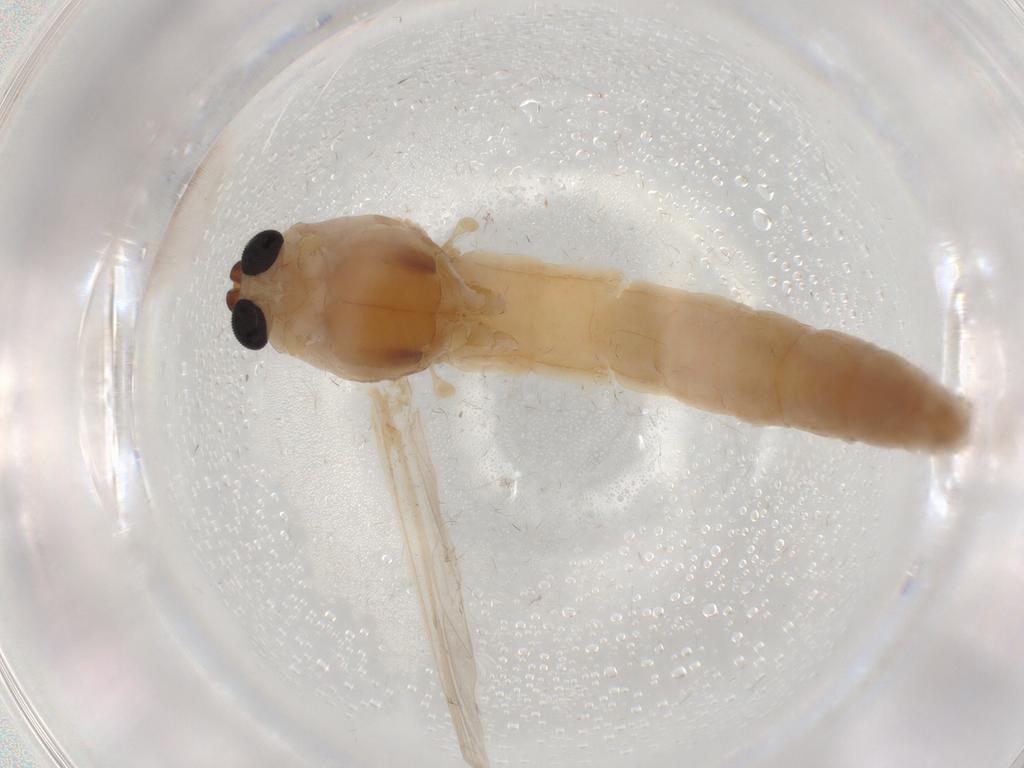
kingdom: Animalia
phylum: Arthropoda
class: Insecta
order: Diptera
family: Chironomidae
